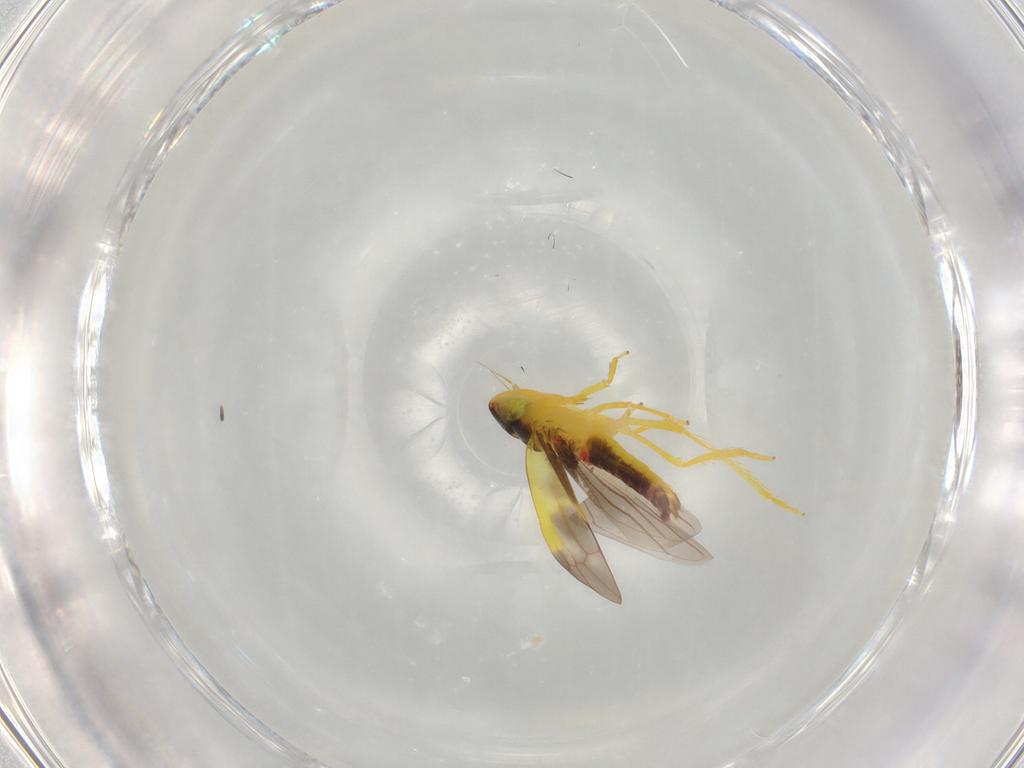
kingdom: Animalia
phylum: Arthropoda
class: Insecta
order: Hemiptera
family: Cicadellidae
